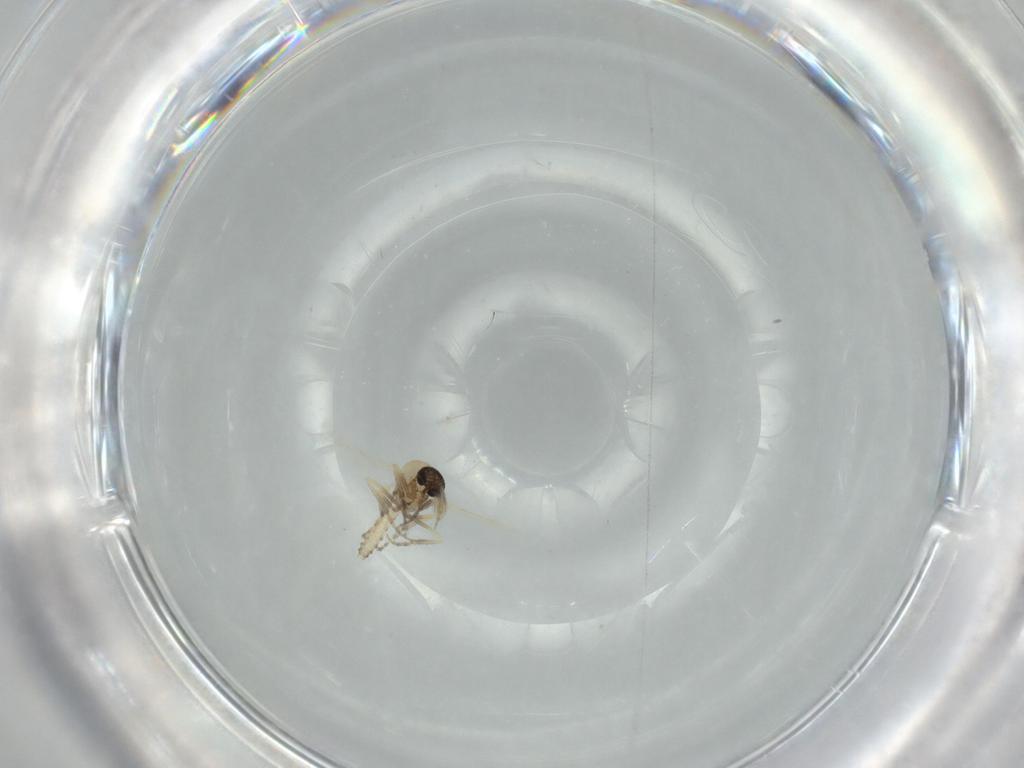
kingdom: Animalia
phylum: Arthropoda
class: Insecta
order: Diptera
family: Ceratopogonidae
